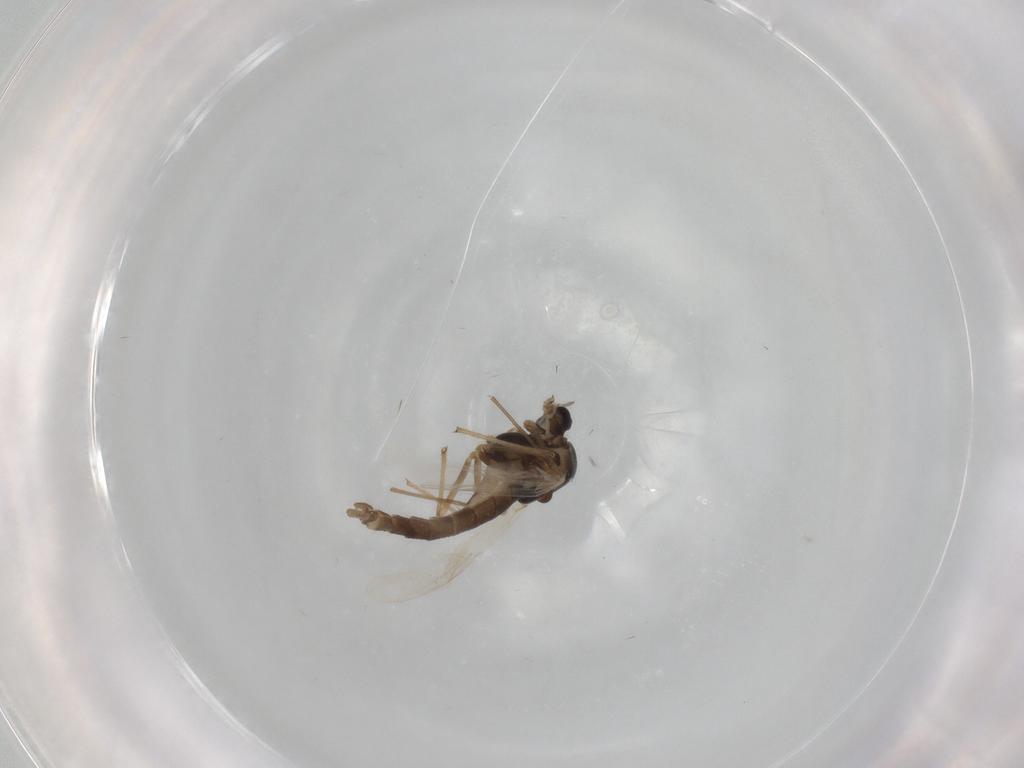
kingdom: Animalia
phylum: Arthropoda
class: Insecta
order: Diptera
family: Chironomidae
